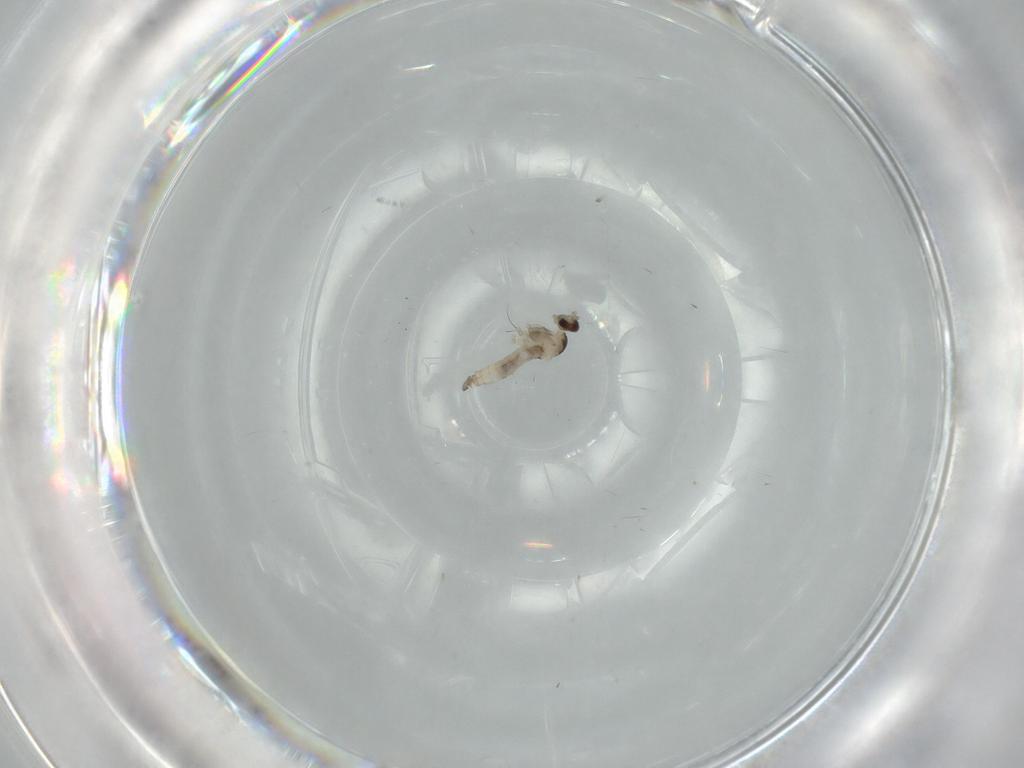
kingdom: Animalia
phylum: Arthropoda
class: Insecta
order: Diptera
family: Cecidomyiidae
